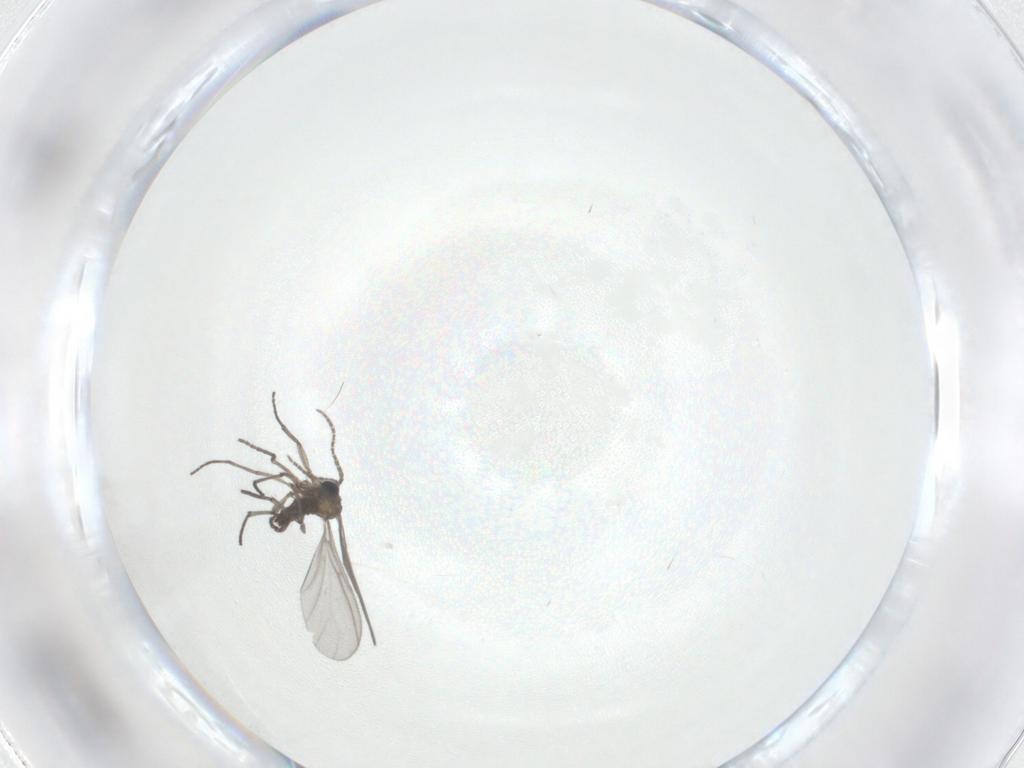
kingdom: Animalia
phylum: Arthropoda
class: Insecta
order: Diptera
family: Sciaridae
